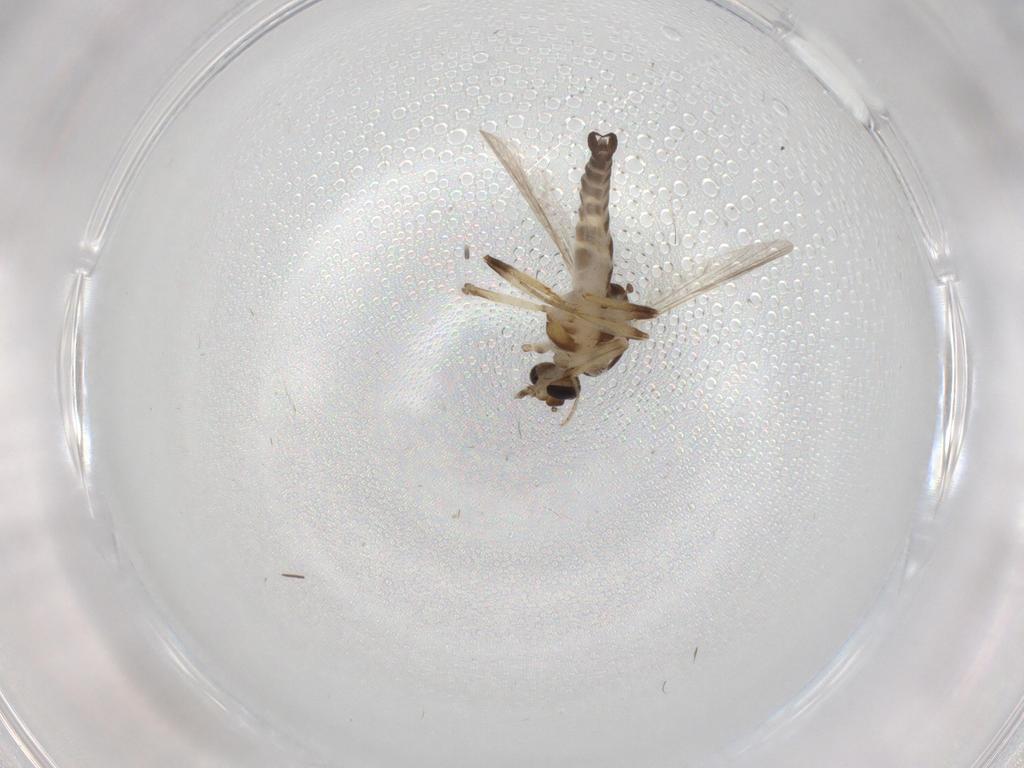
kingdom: Animalia
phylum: Arthropoda
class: Insecta
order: Diptera
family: Ceratopogonidae
